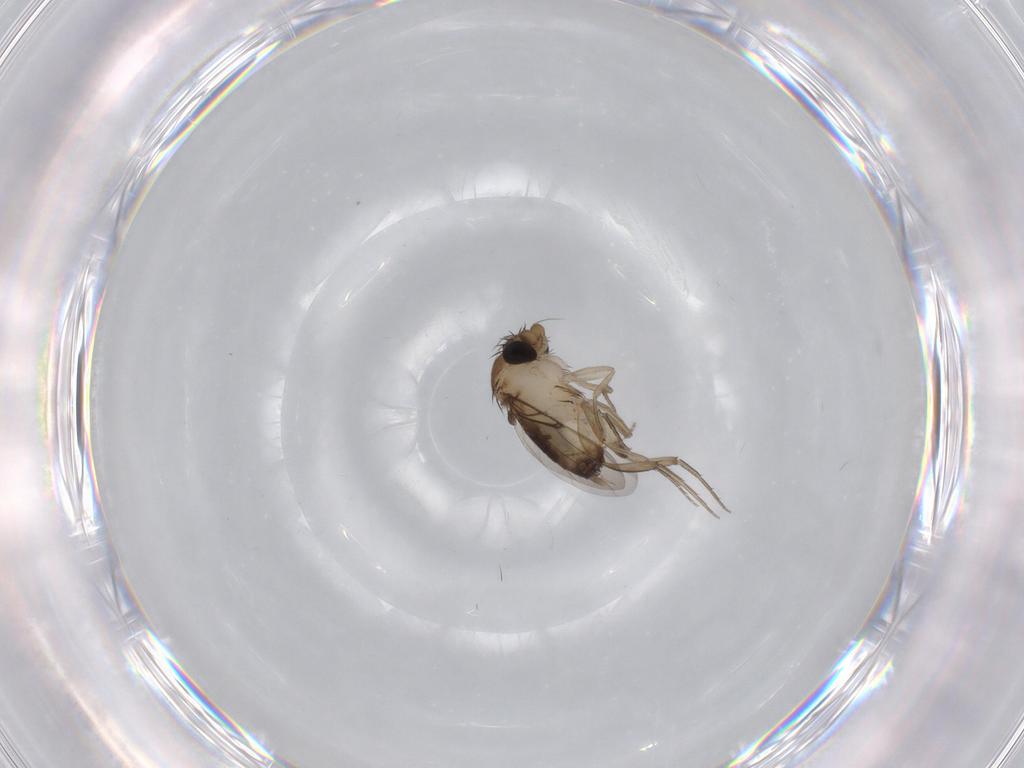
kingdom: Animalia
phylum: Arthropoda
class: Insecta
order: Diptera
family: Phoridae
